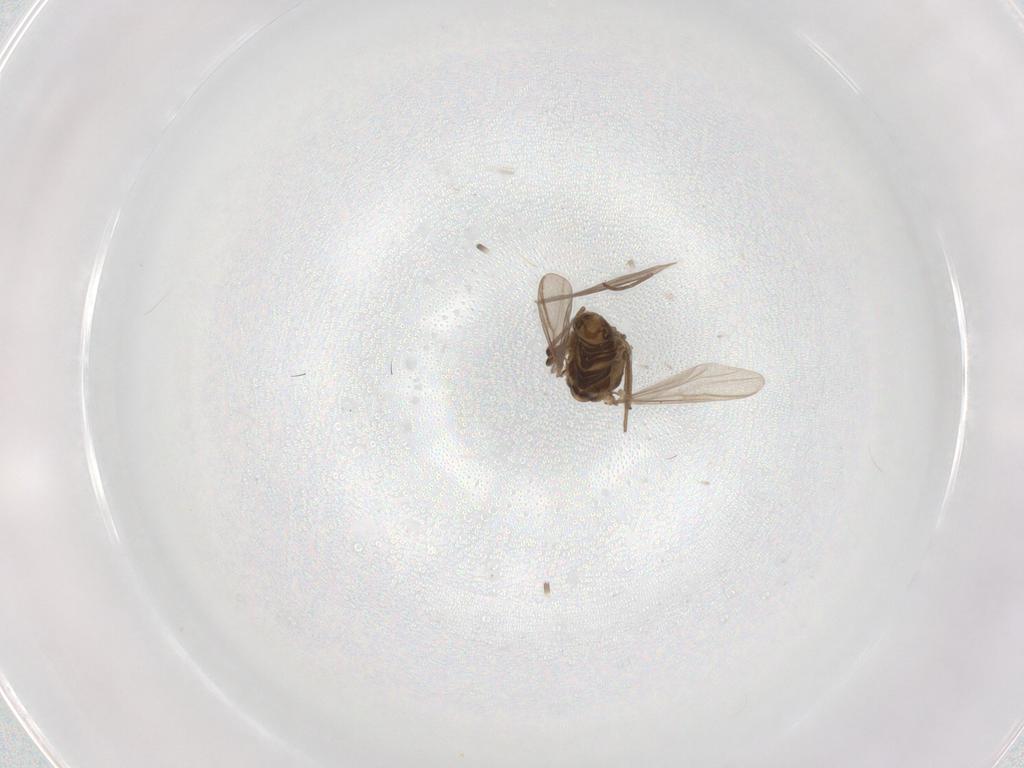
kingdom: Animalia
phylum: Arthropoda
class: Insecta
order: Diptera
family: Chironomidae
